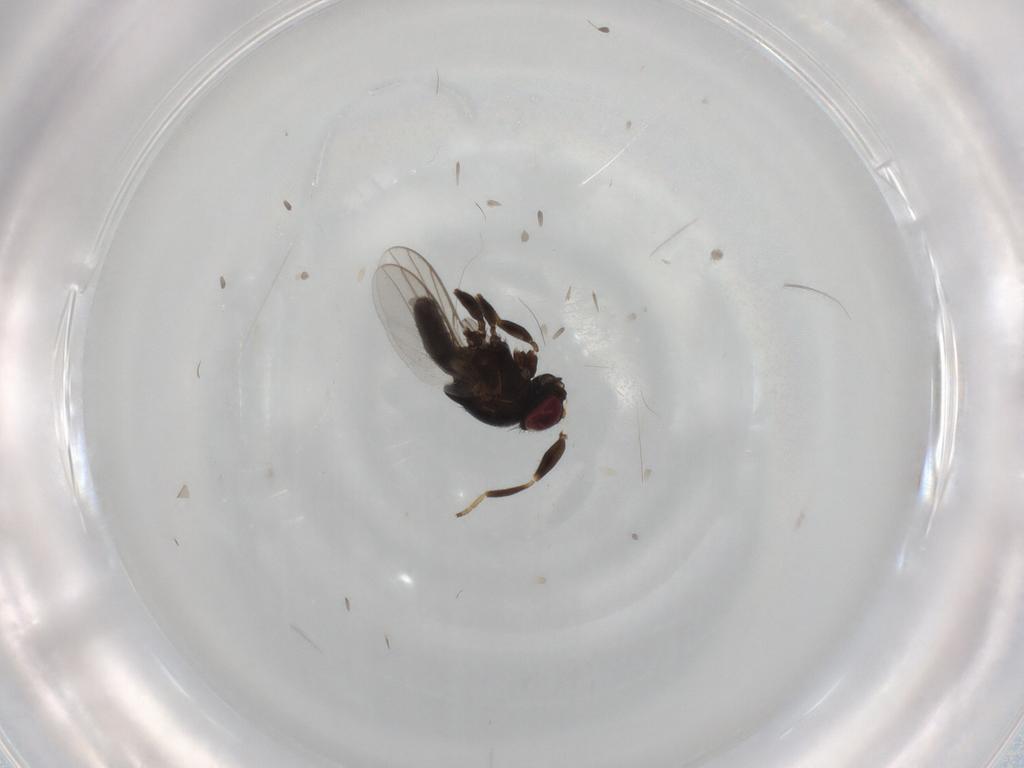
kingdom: Animalia
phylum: Arthropoda
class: Insecta
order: Diptera
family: Chloropidae
